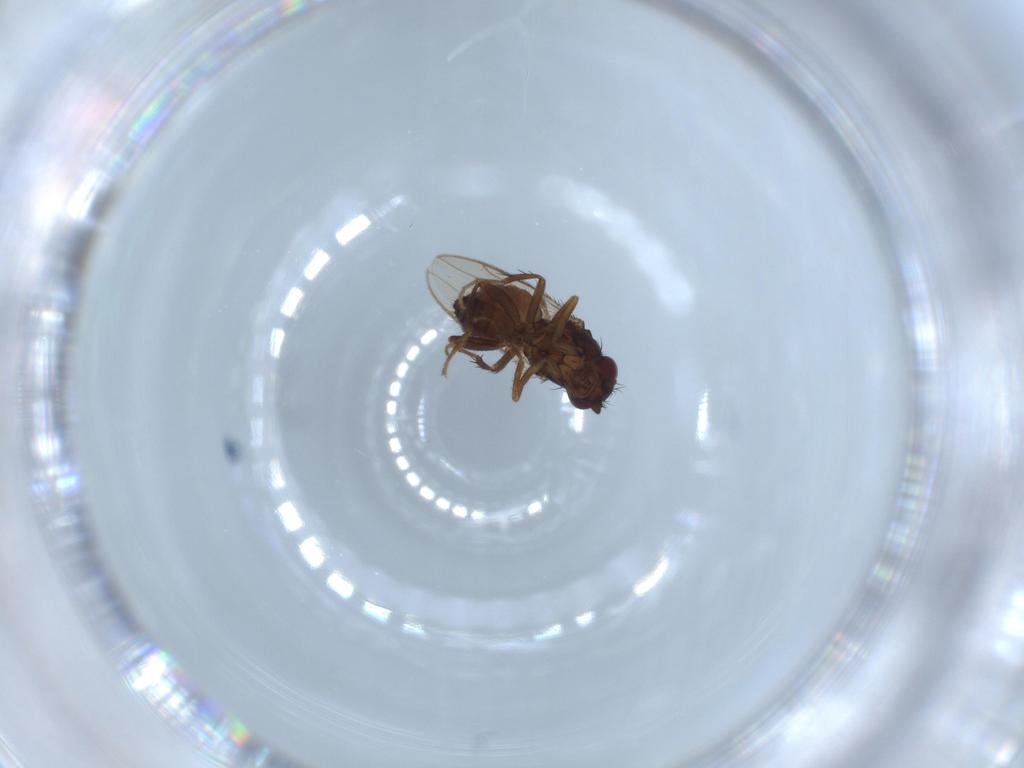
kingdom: Animalia
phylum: Arthropoda
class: Insecta
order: Diptera
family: Sphaeroceridae
